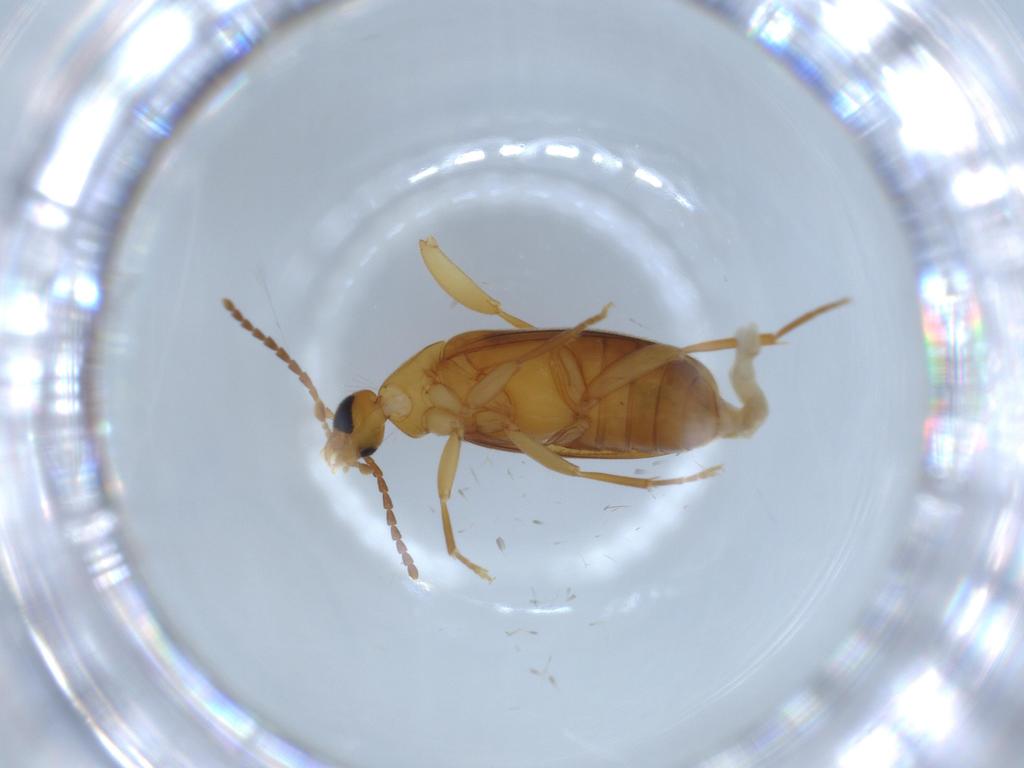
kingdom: Animalia
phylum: Arthropoda
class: Insecta
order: Coleoptera
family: Scraptiidae
